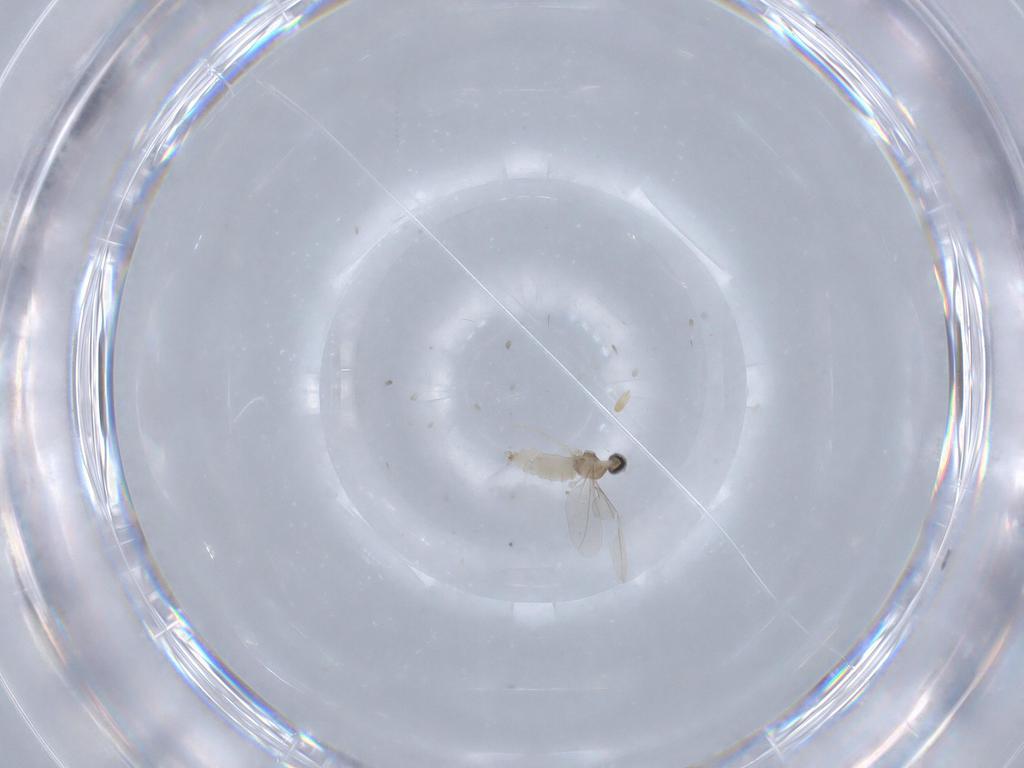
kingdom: Animalia
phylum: Arthropoda
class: Insecta
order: Diptera
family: Cecidomyiidae
